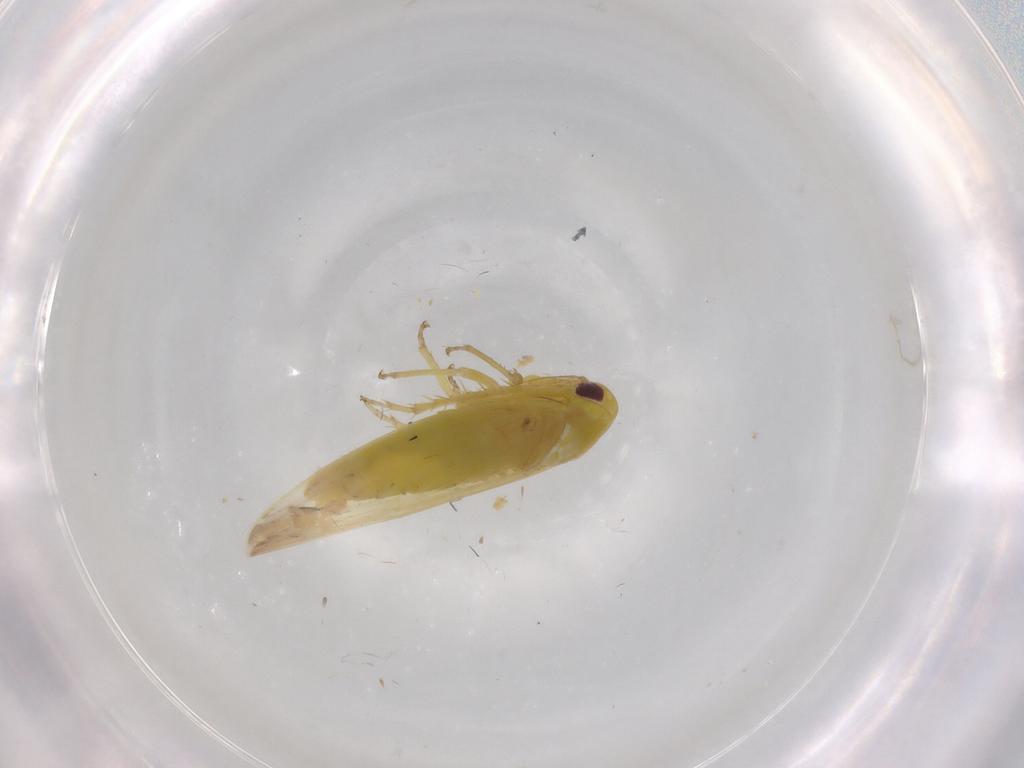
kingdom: Animalia
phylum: Arthropoda
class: Insecta
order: Hemiptera
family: Cicadellidae
